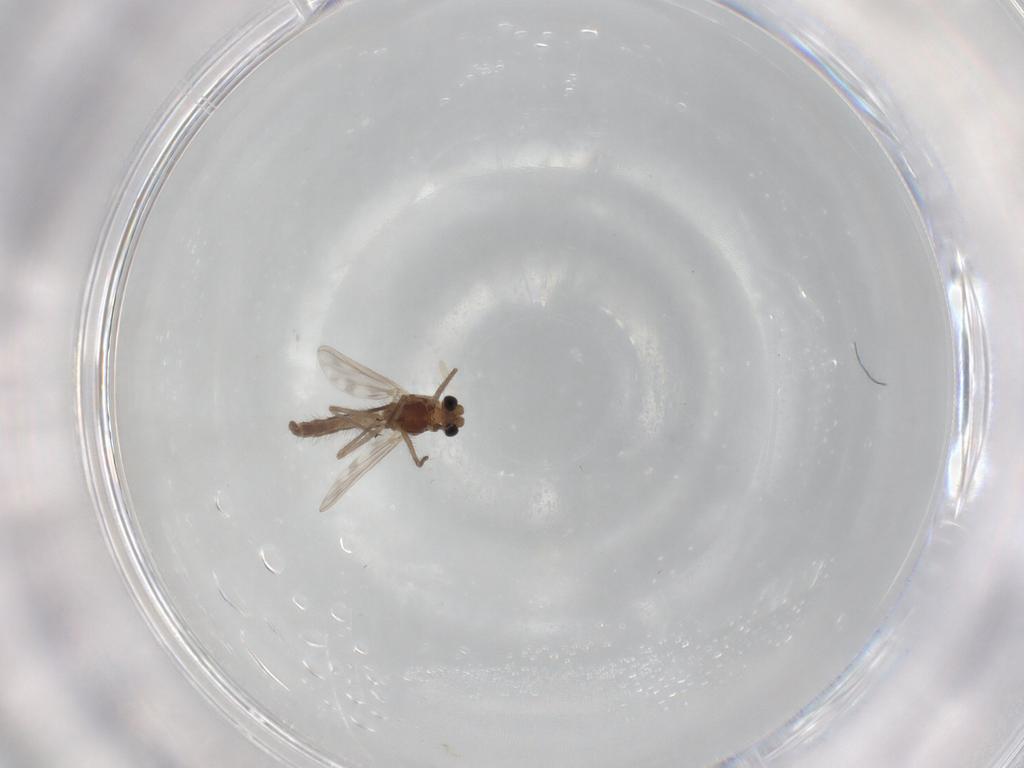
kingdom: Animalia
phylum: Arthropoda
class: Insecta
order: Diptera
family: Chironomidae
